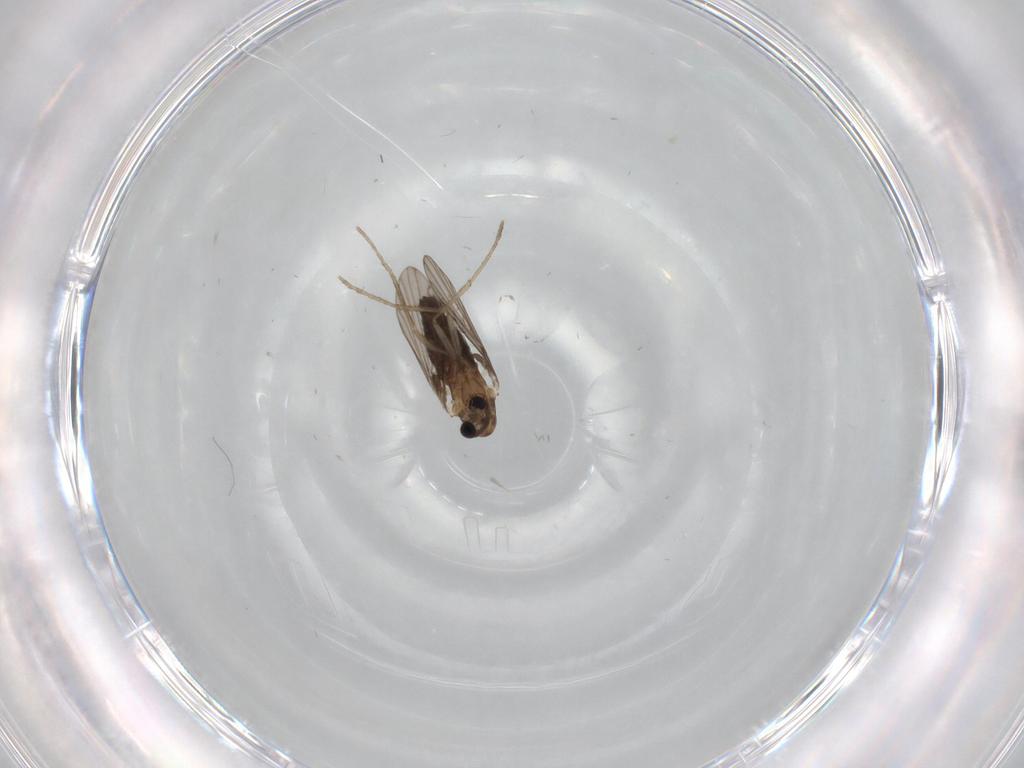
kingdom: Animalia
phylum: Arthropoda
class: Insecta
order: Diptera
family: Psychodidae
